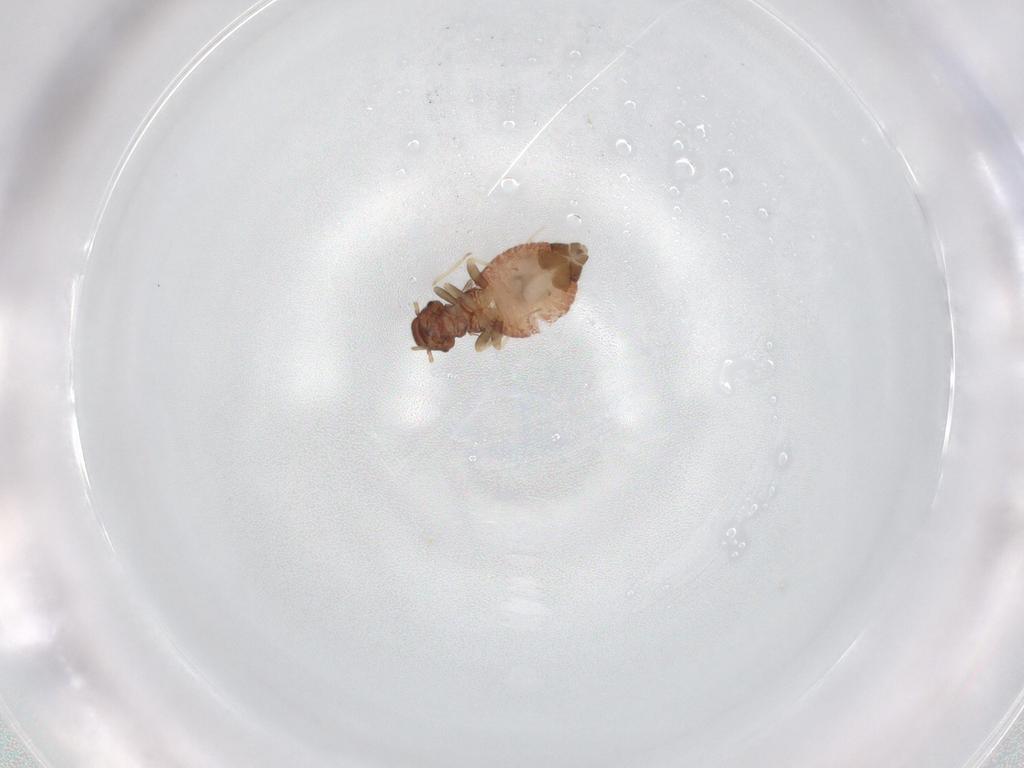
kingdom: Animalia
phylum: Arthropoda
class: Insecta
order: Psocodea
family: Archipsocidae
